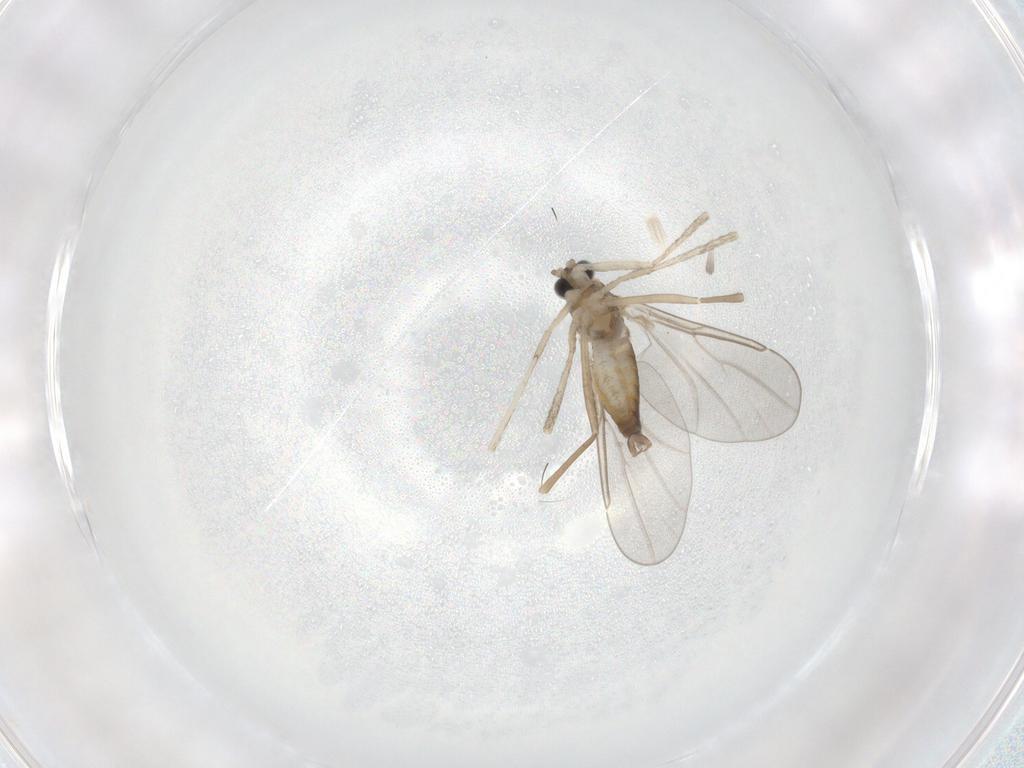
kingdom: Animalia
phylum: Arthropoda
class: Insecta
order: Diptera
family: Cecidomyiidae
